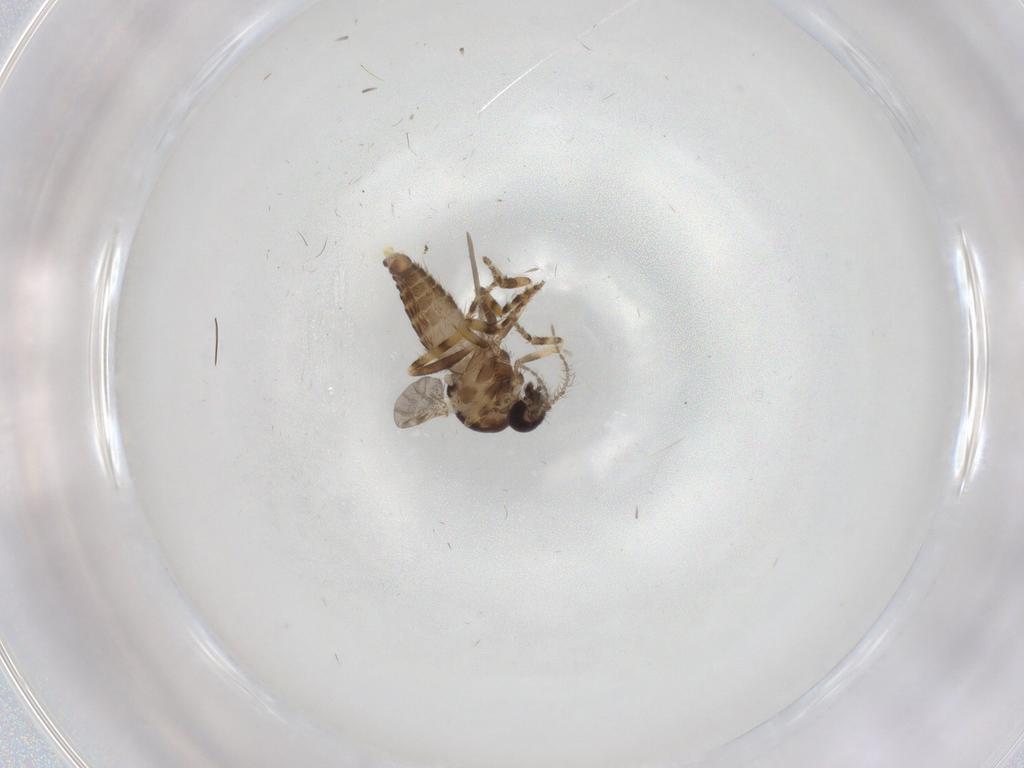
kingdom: Animalia
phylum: Arthropoda
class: Insecta
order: Diptera
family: Ceratopogonidae
